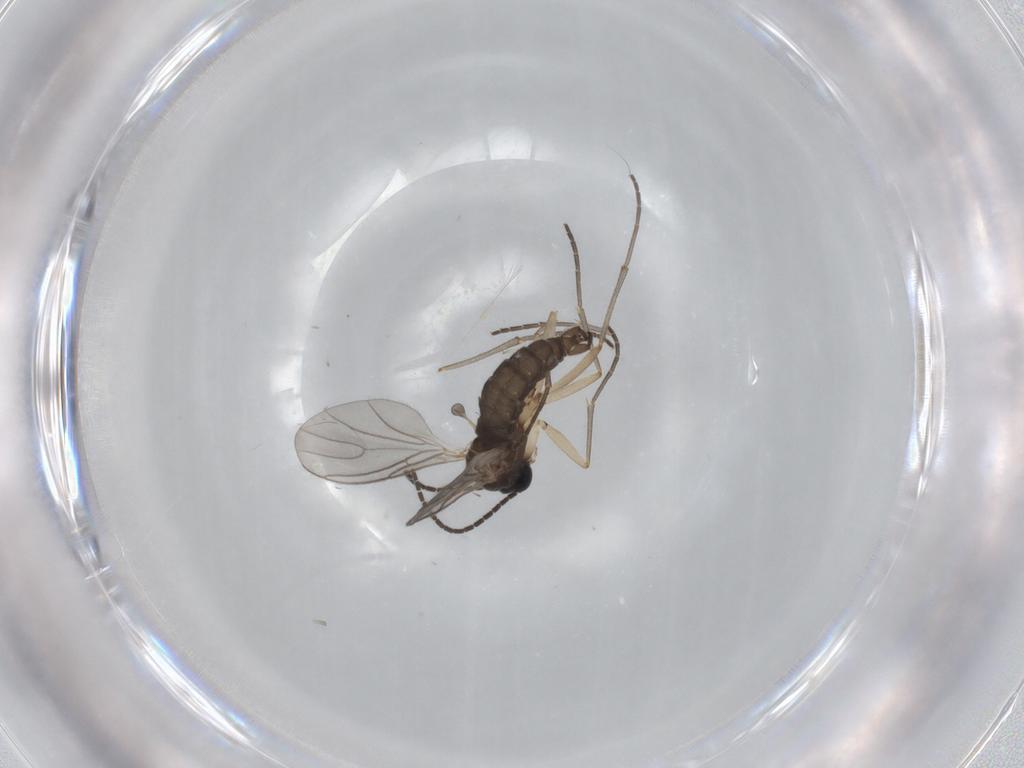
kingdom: Animalia
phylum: Arthropoda
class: Insecta
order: Diptera
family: Sciaridae
